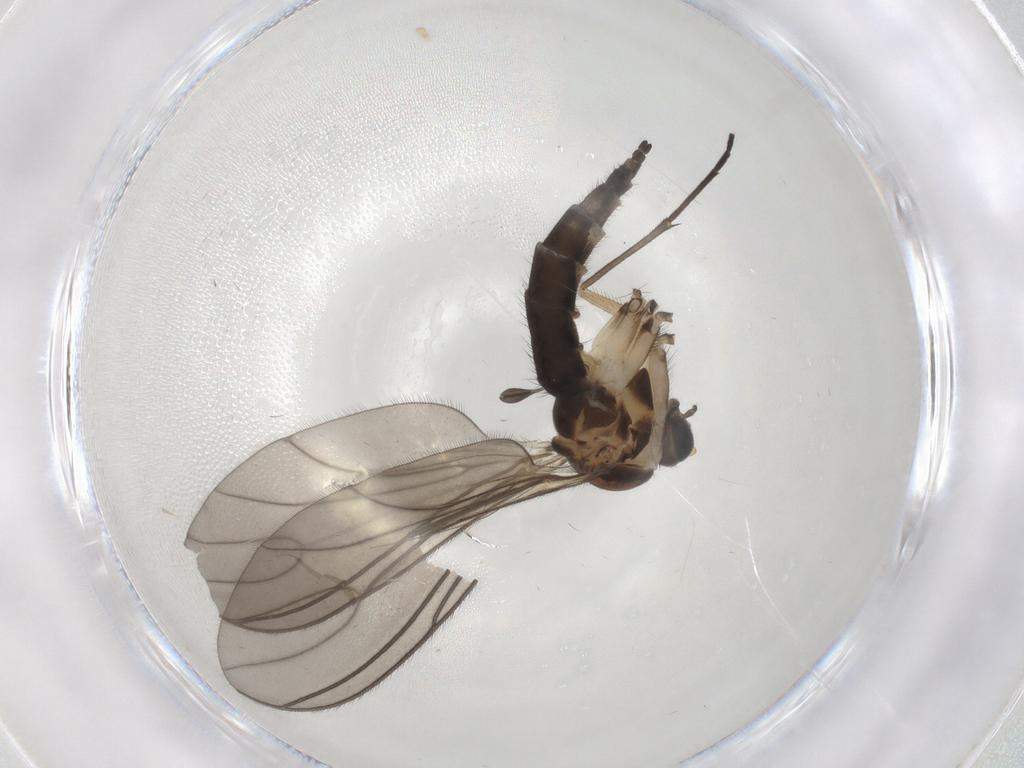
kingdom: Animalia
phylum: Arthropoda
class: Insecta
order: Diptera
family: Sciaridae
